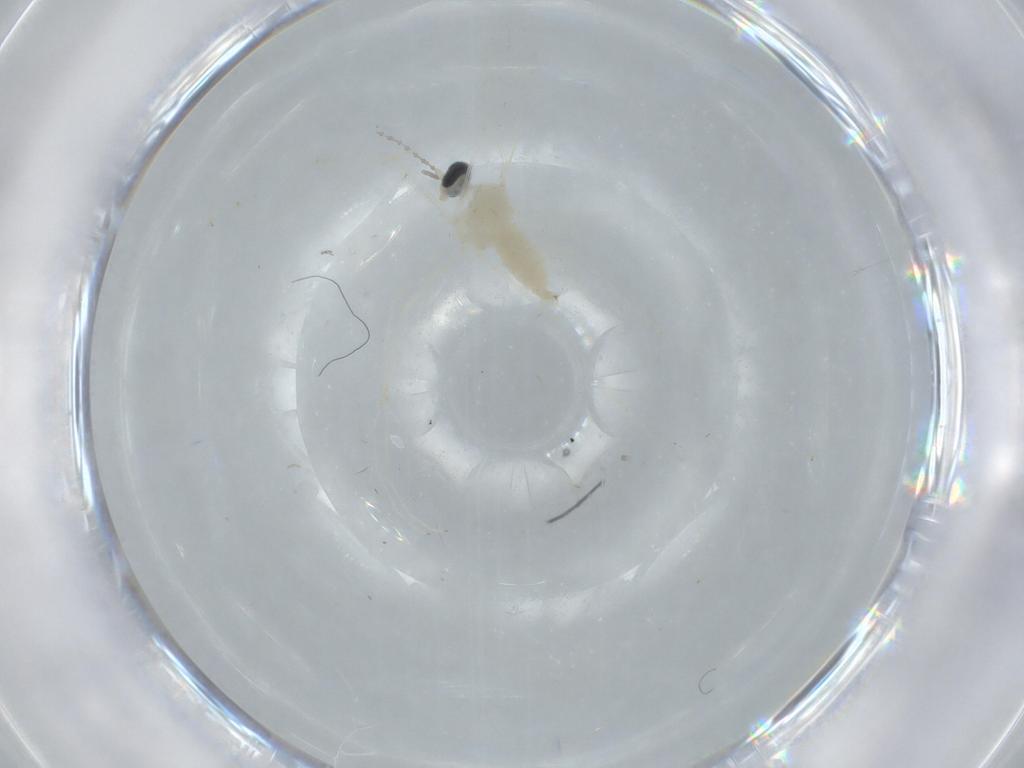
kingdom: Animalia
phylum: Arthropoda
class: Insecta
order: Diptera
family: Cecidomyiidae
